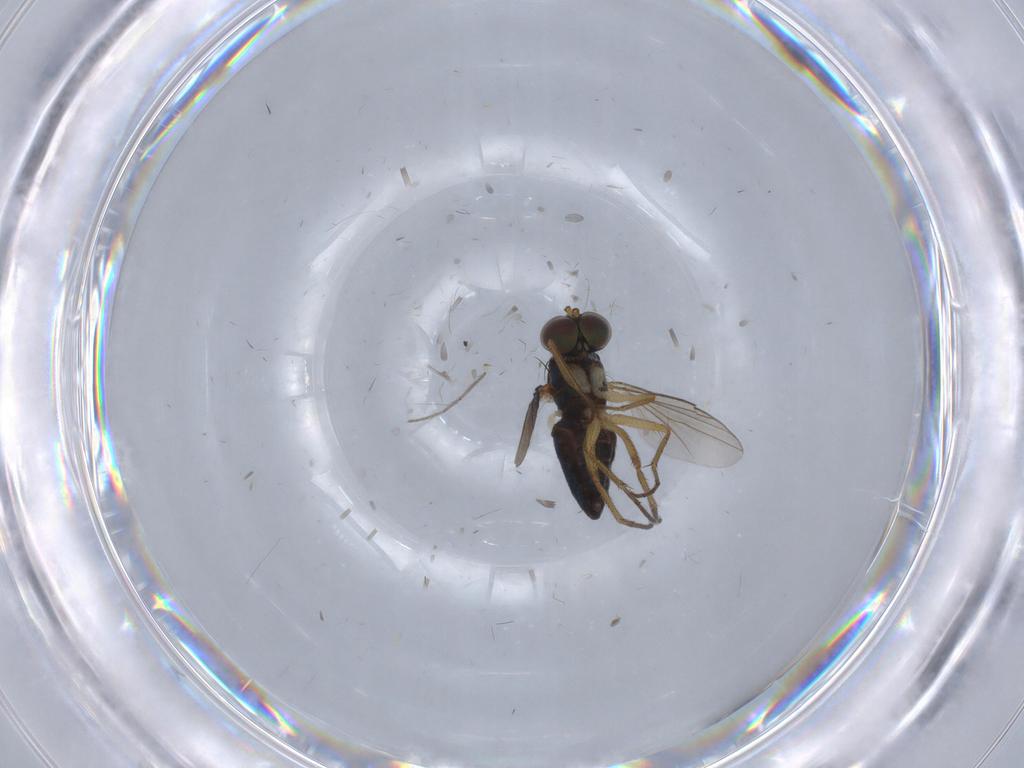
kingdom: Animalia
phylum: Arthropoda
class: Insecta
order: Diptera
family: Chironomidae
